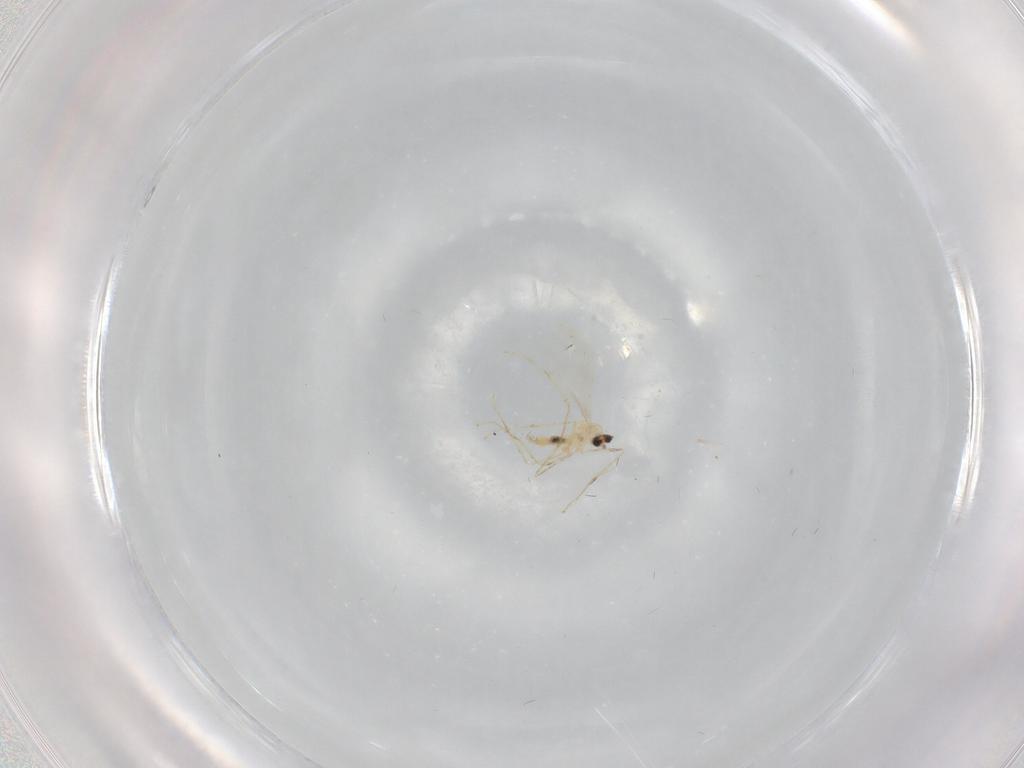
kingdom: Animalia
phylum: Arthropoda
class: Insecta
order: Diptera
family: Cecidomyiidae
